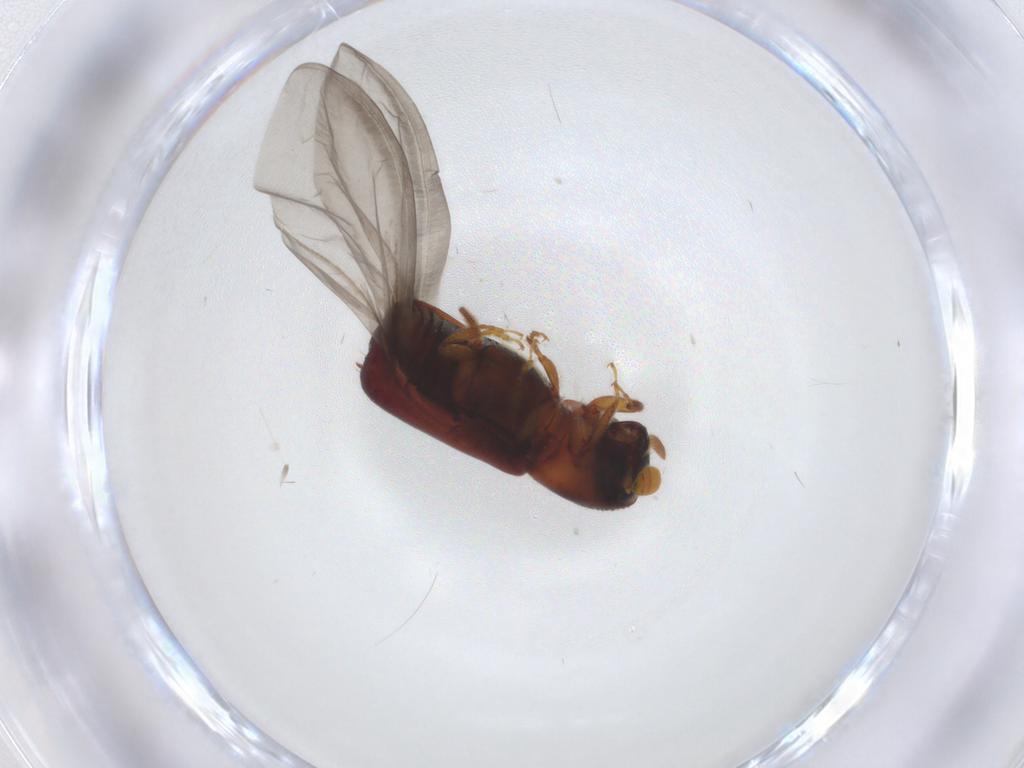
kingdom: Animalia
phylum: Arthropoda
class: Insecta
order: Coleoptera
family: Curculionidae
